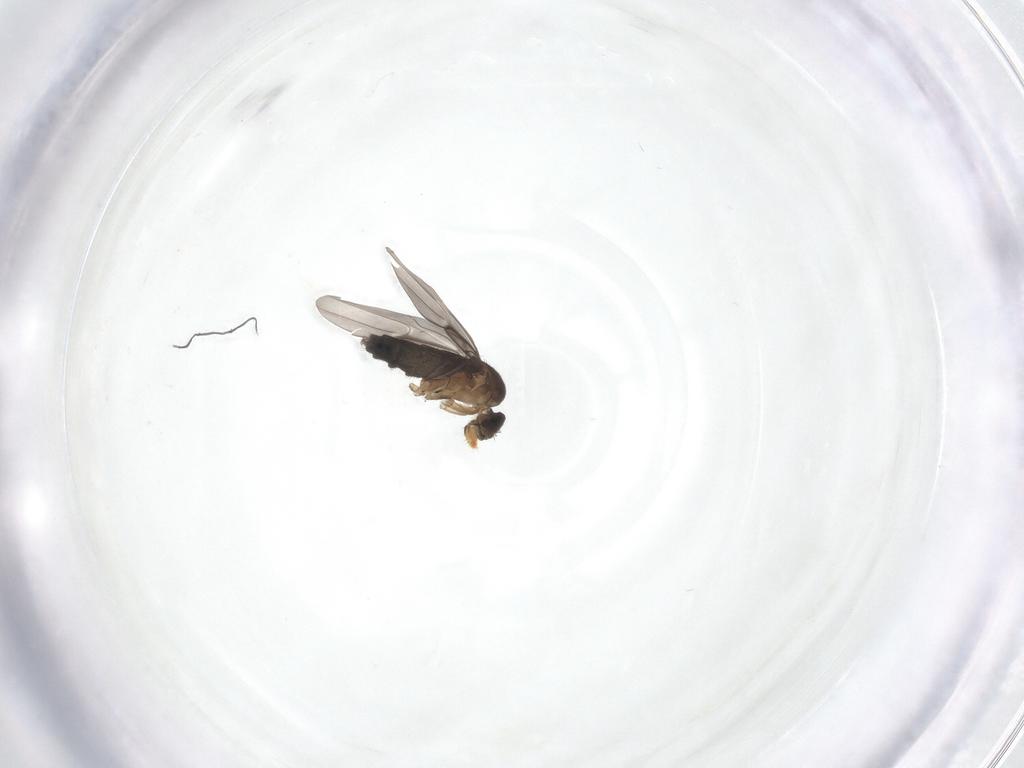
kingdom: Animalia
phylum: Arthropoda
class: Insecta
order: Diptera
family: Phoridae
